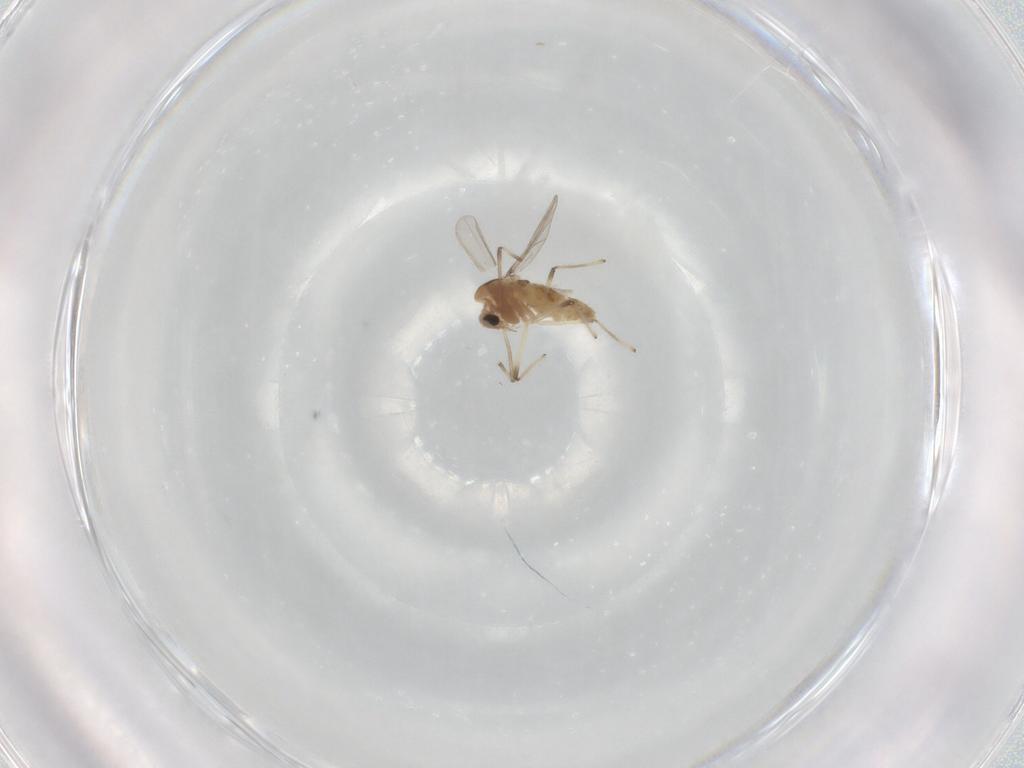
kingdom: Animalia
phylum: Arthropoda
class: Insecta
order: Diptera
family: Chironomidae
